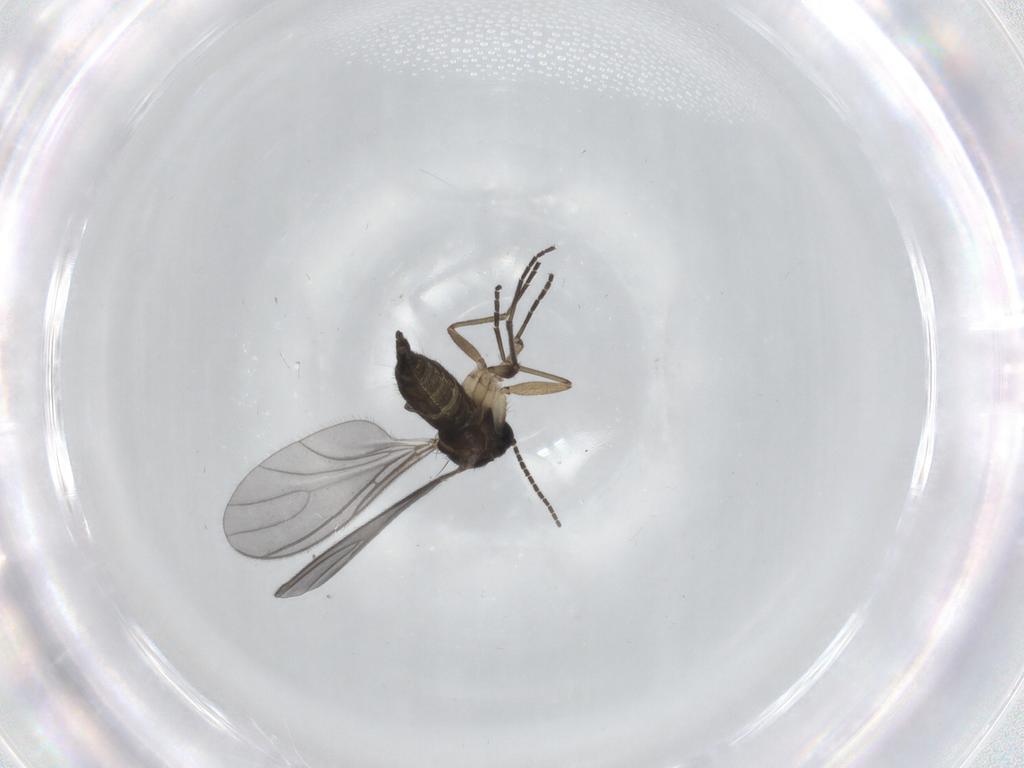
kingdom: Animalia
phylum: Arthropoda
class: Insecta
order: Diptera
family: Sciaridae
